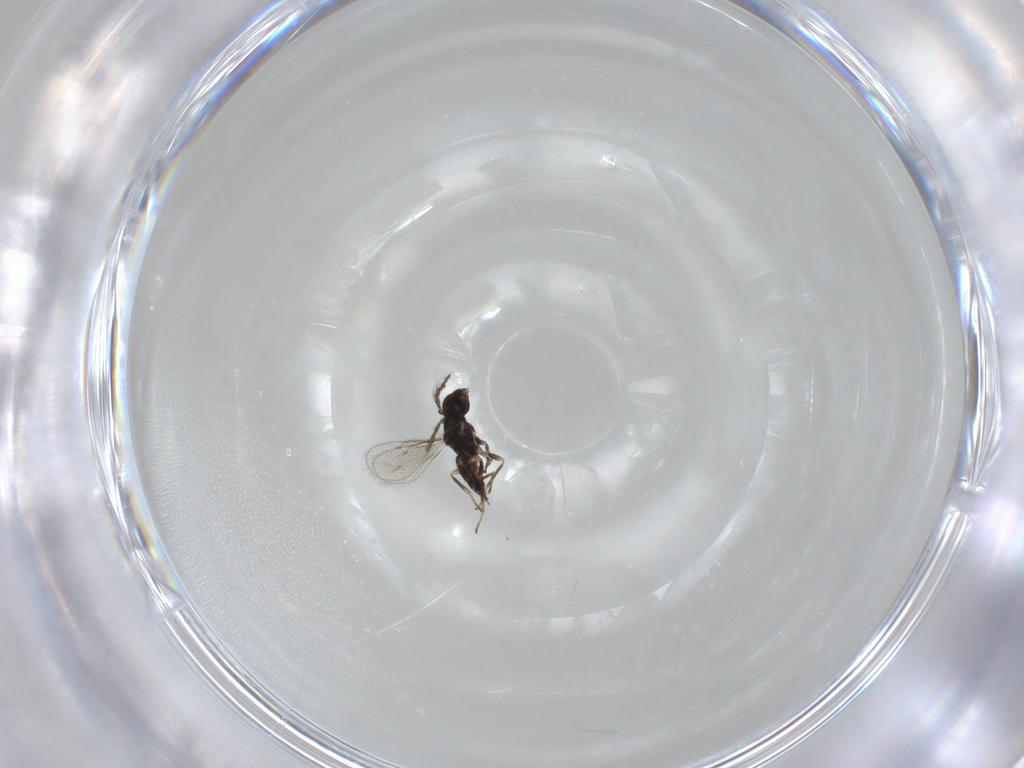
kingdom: Animalia
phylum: Arthropoda
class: Insecta
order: Hymenoptera
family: Eulophidae
